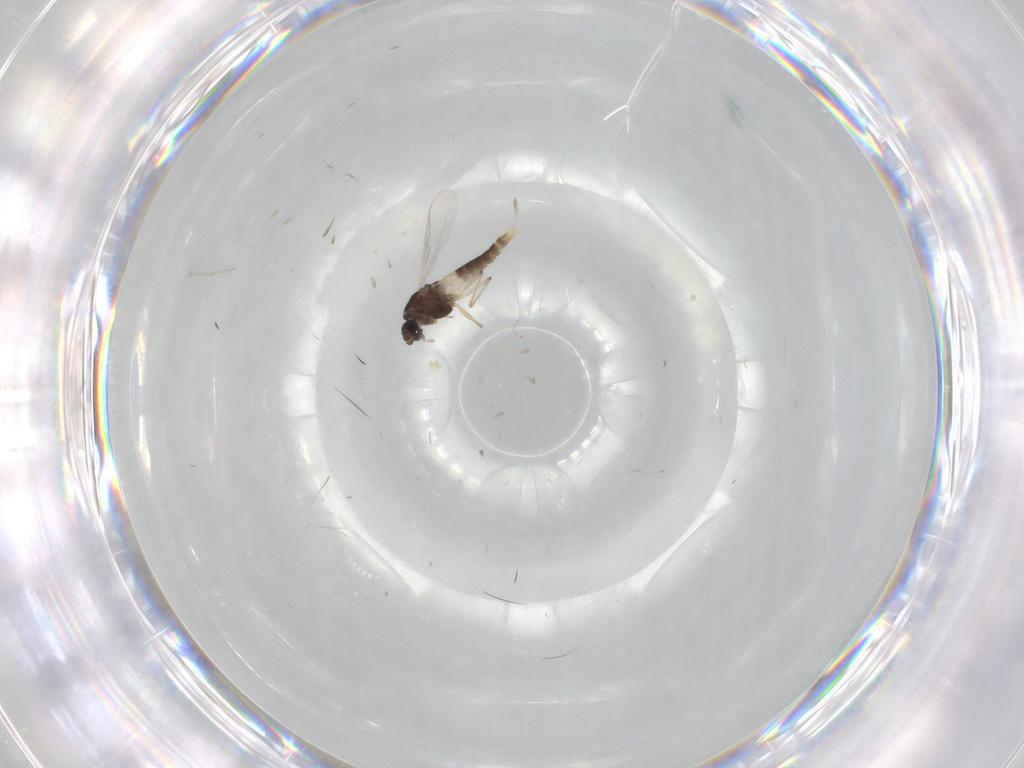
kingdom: Animalia
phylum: Arthropoda
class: Insecta
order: Diptera
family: Cecidomyiidae
